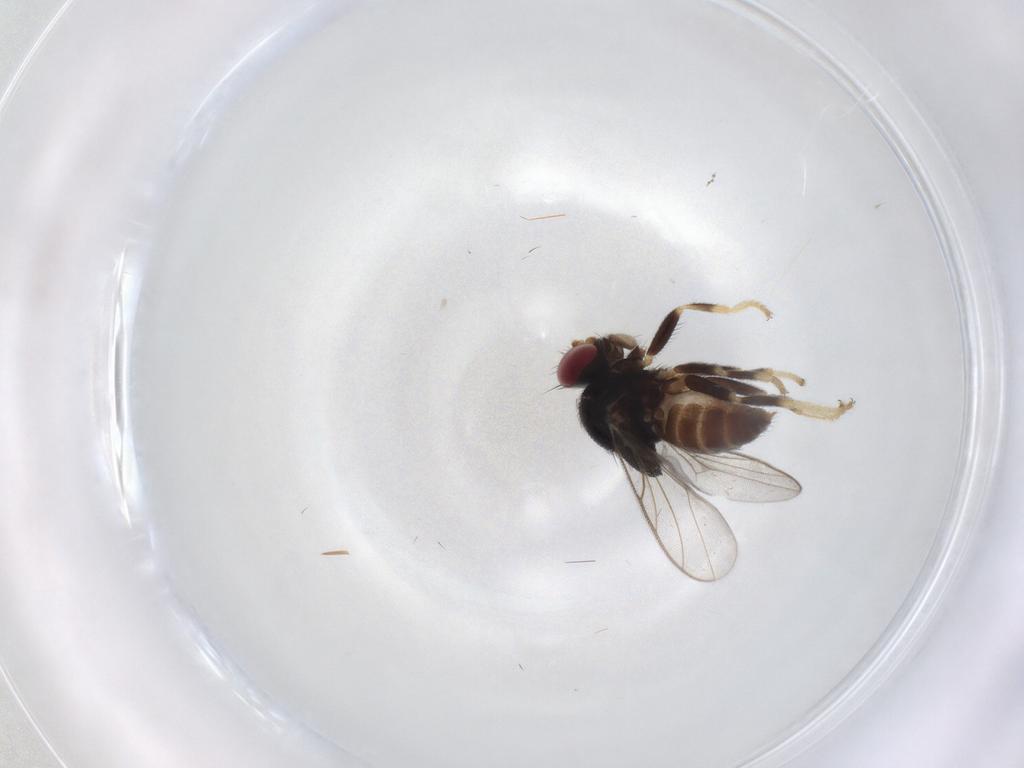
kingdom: Animalia
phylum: Arthropoda
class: Insecta
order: Diptera
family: Chloropidae
